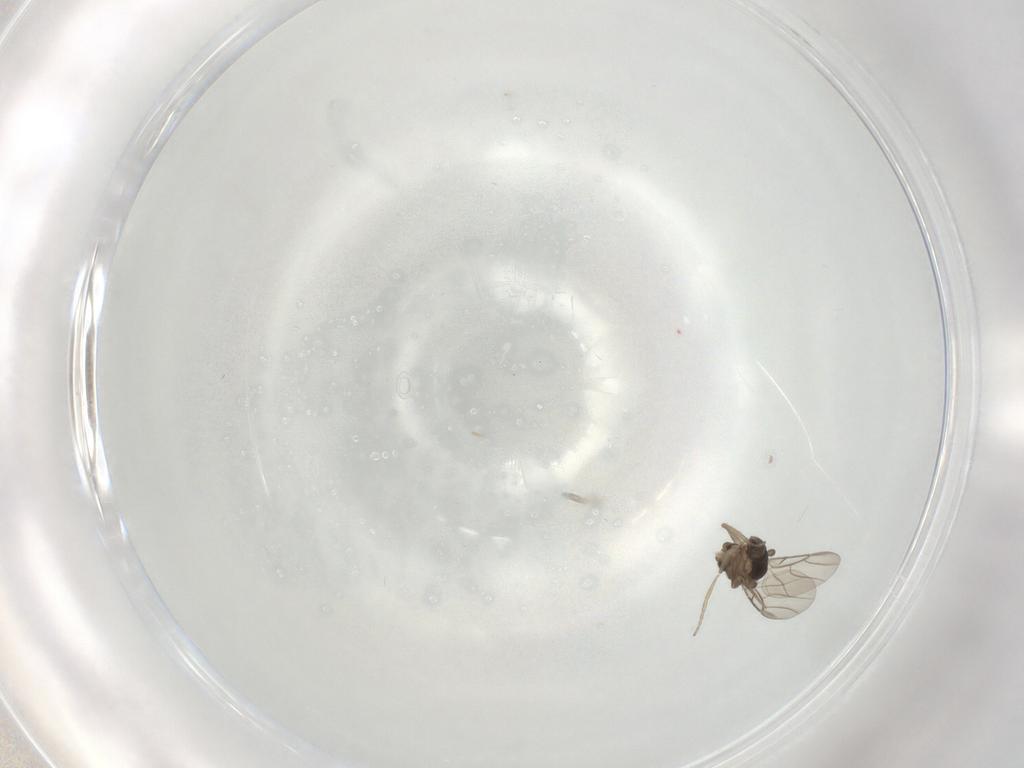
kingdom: Animalia
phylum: Arthropoda
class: Insecta
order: Diptera
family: Phoridae
